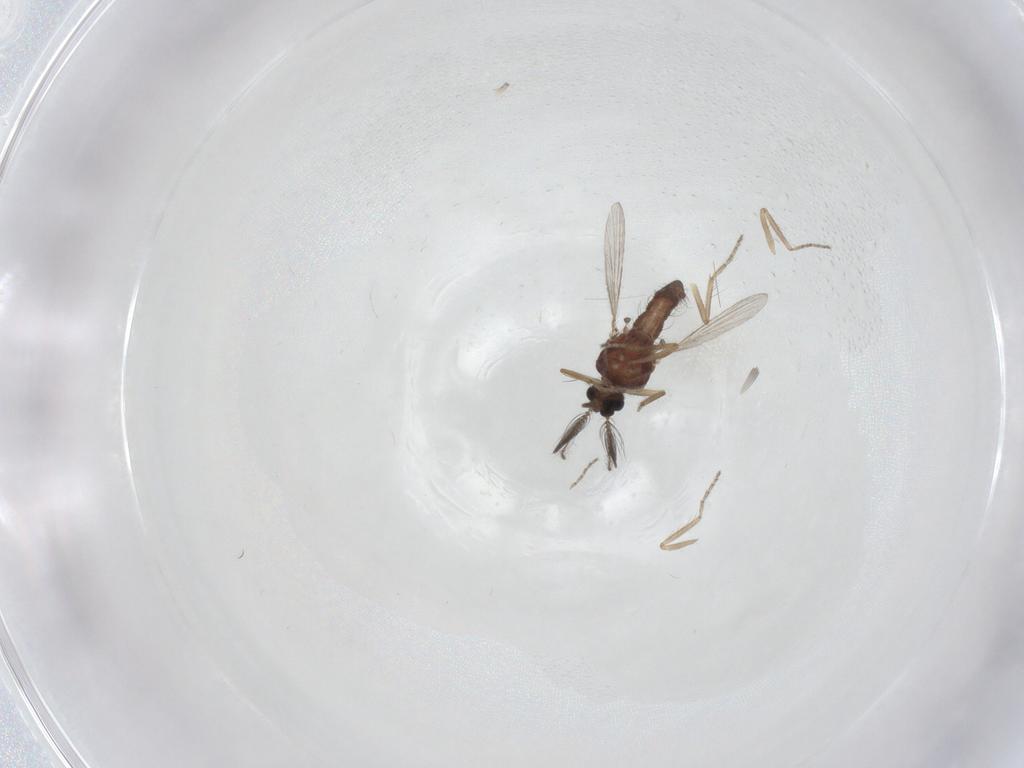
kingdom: Animalia
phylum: Arthropoda
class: Insecta
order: Diptera
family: Ceratopogonidae
